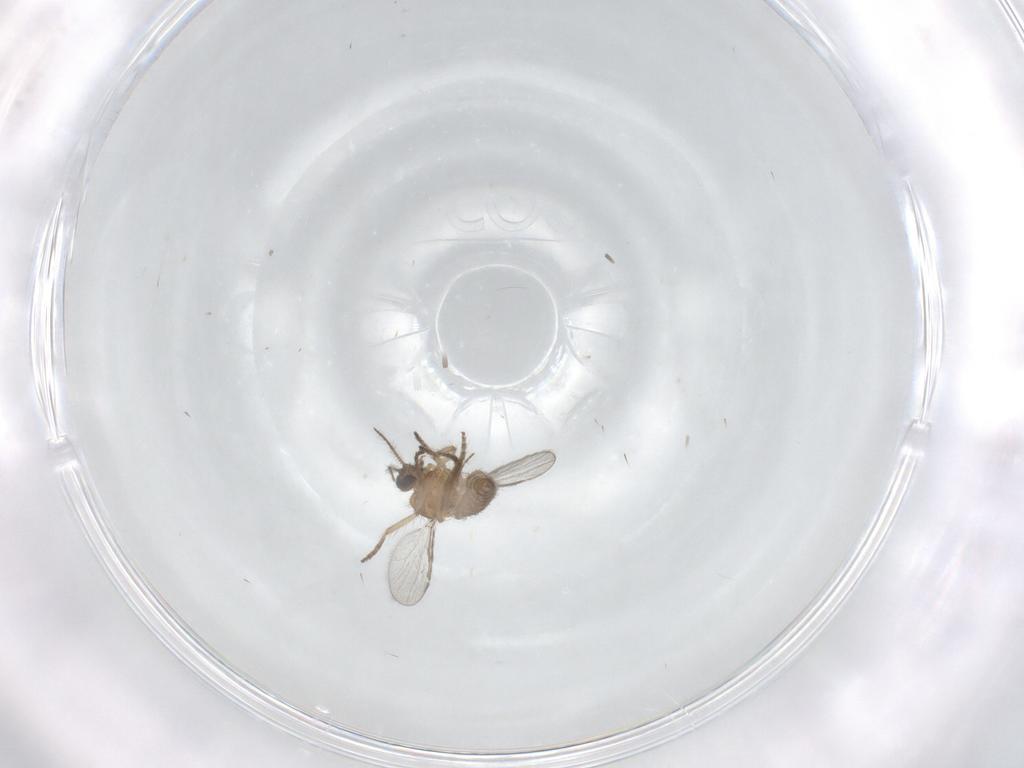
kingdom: Animalia
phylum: Arthropoda
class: Insecta
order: Diptera
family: Ceratopogonidae
